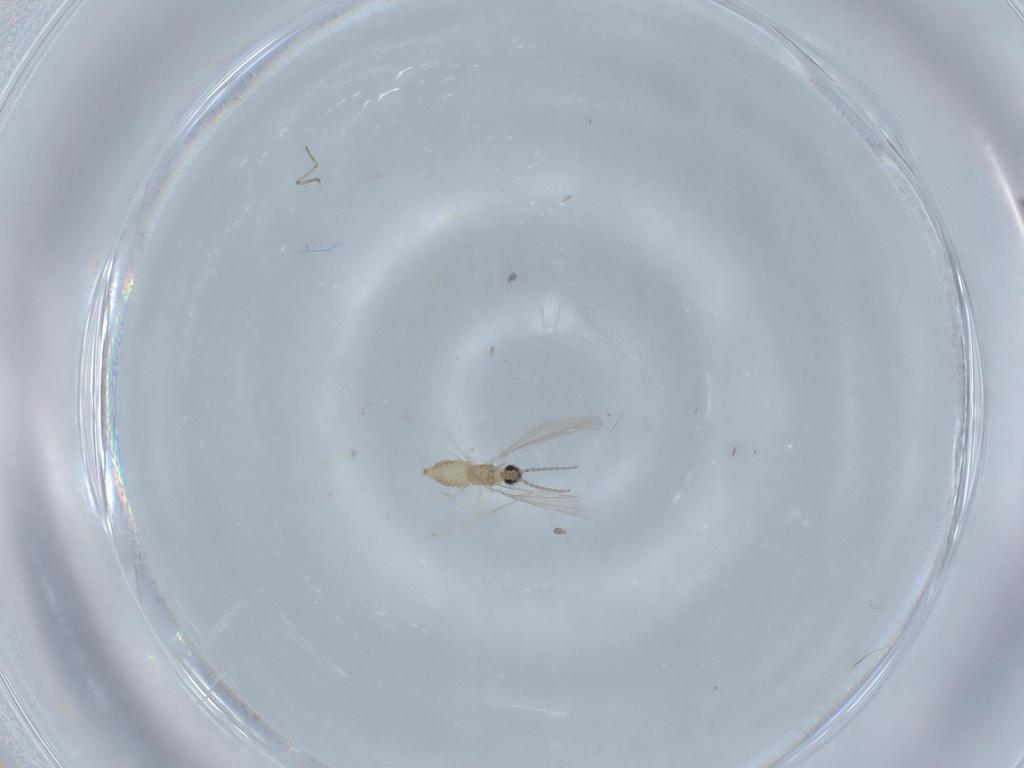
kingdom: Animalia
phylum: Arthropoda
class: Insecta
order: Diptera
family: Cecidomyiidae
